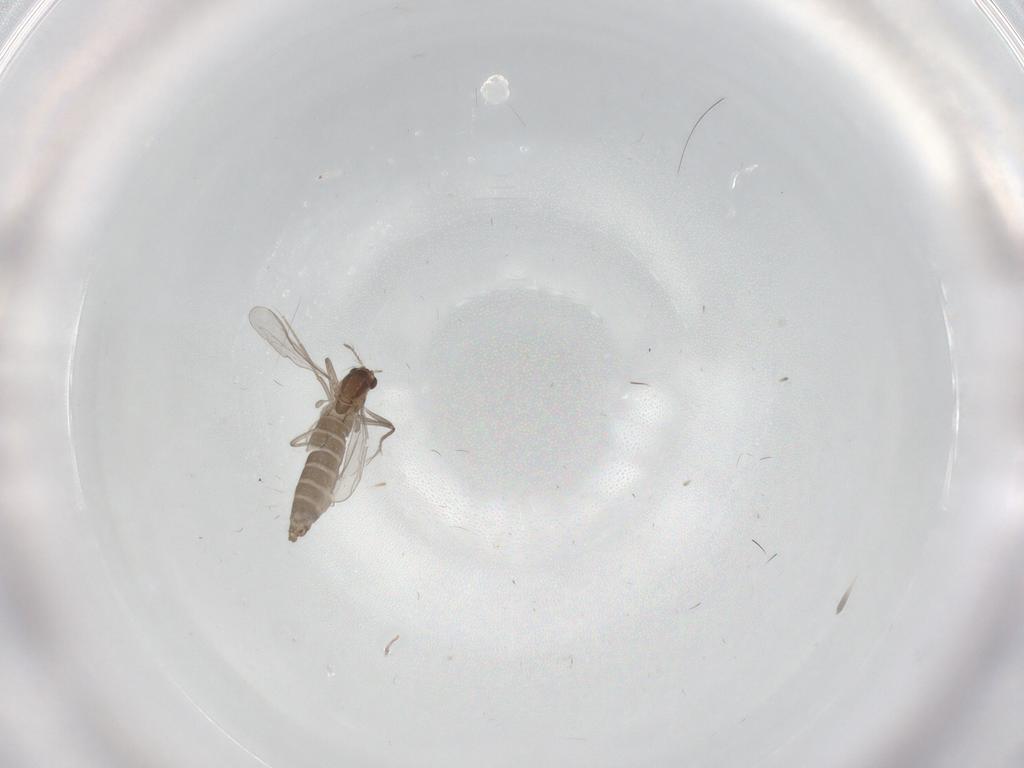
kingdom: Animalia
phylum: Arthropoda
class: Insecta
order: Diptera
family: Chironomidae
